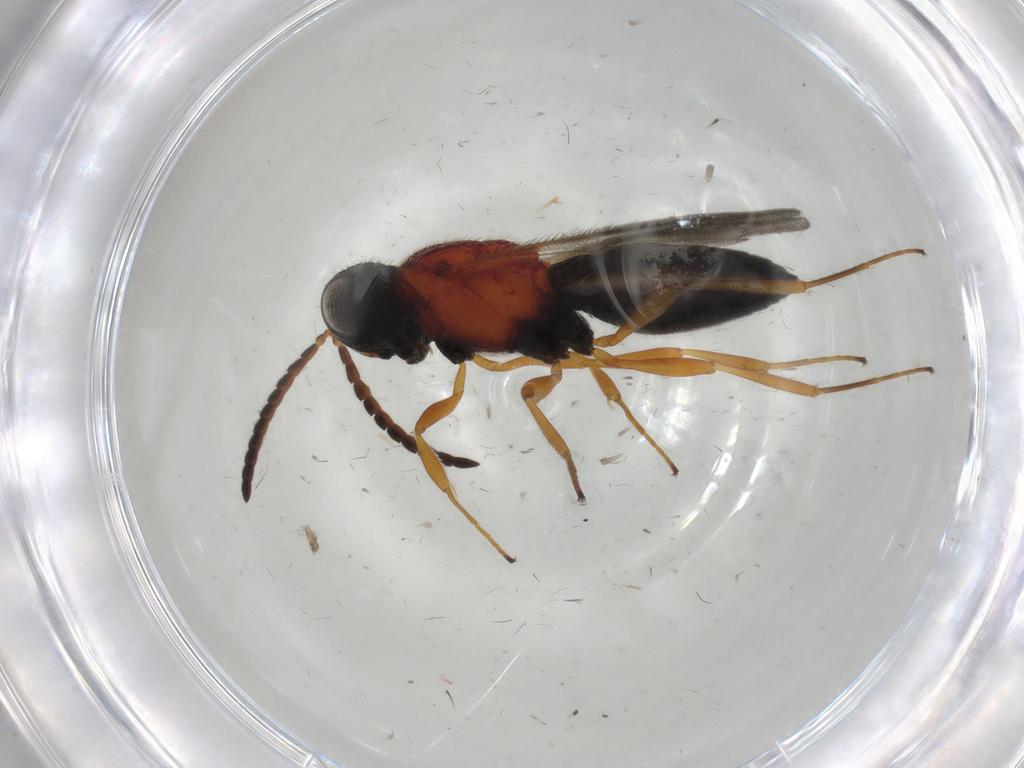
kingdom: Animalia
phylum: Arthropoda
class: Insecta
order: Hymenoptera
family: Scelionidae
